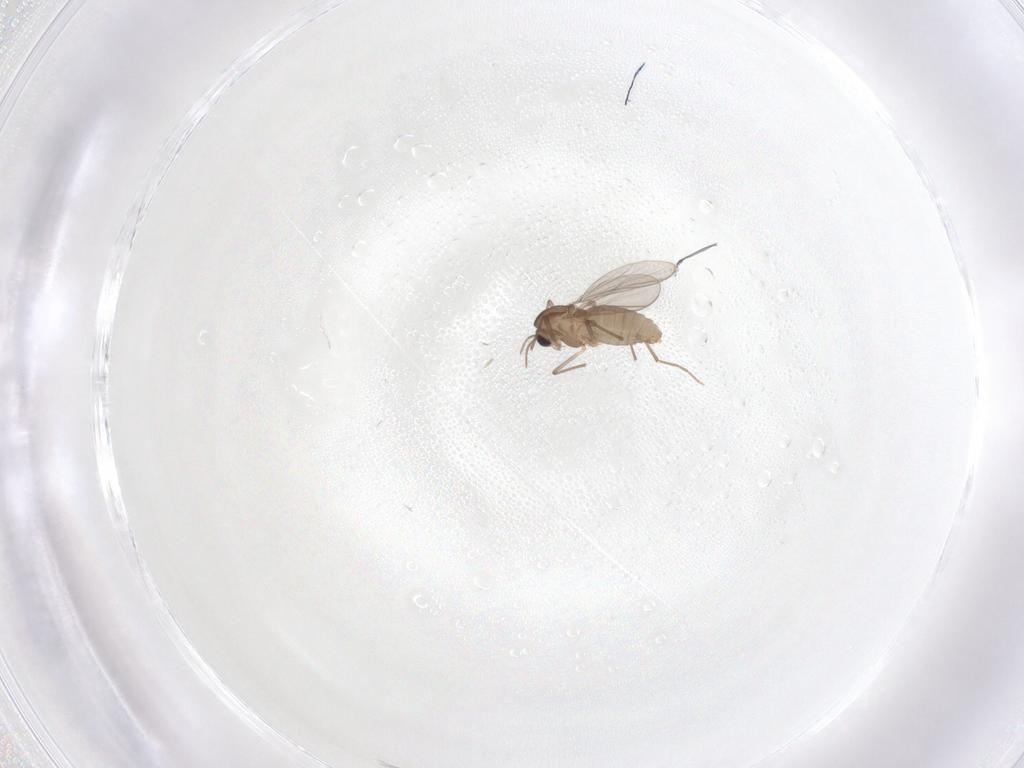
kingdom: Animalia
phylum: Arthropoda
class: Insecta
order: Diptera
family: Chironomidae
